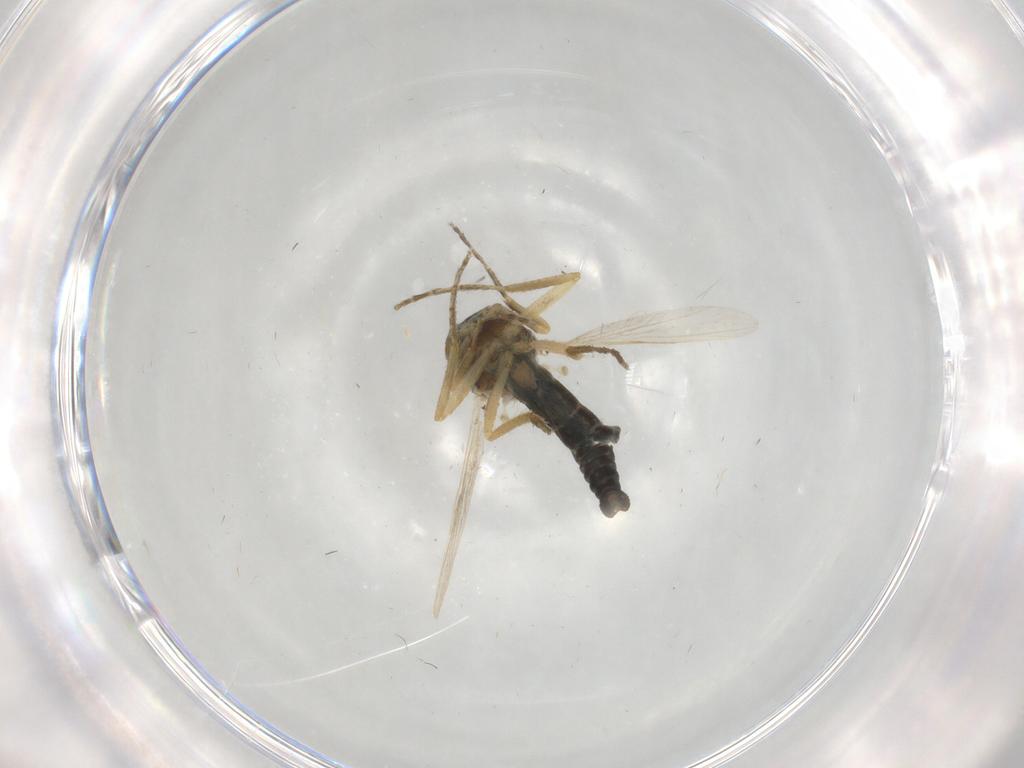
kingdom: Animalia
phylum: Arthropoda
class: Insecta
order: Diptera
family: Ceratopogonidae
